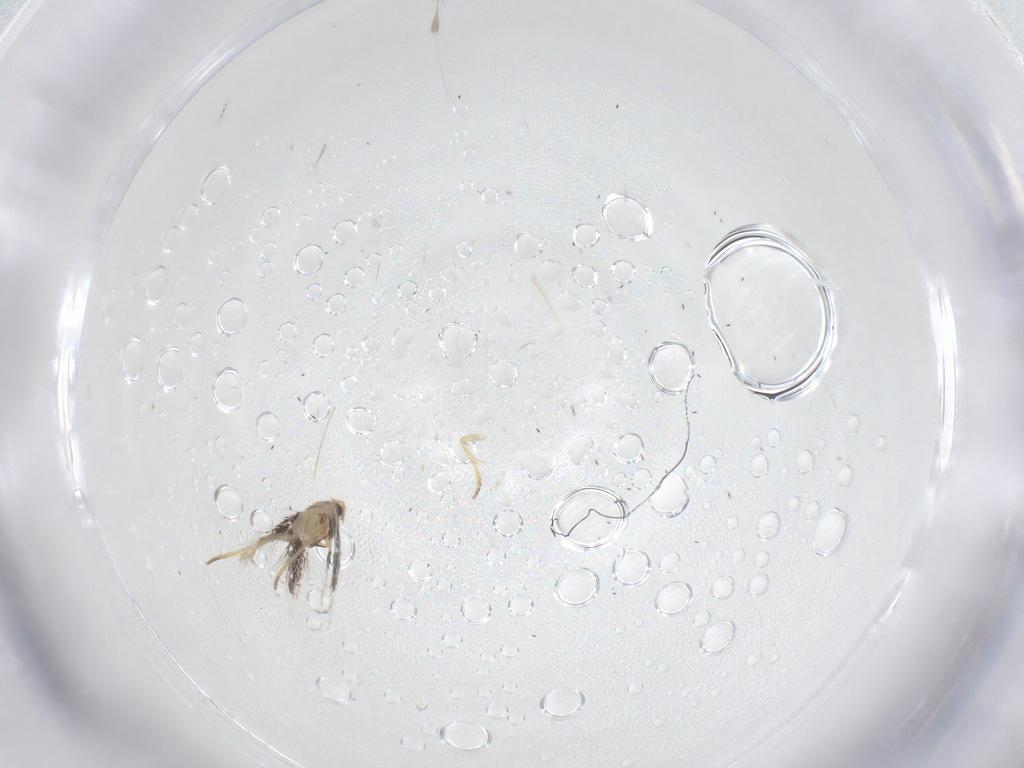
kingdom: Animalia
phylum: Arthropoda
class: Insecta
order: Lepidoptera
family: Nepticulidae
